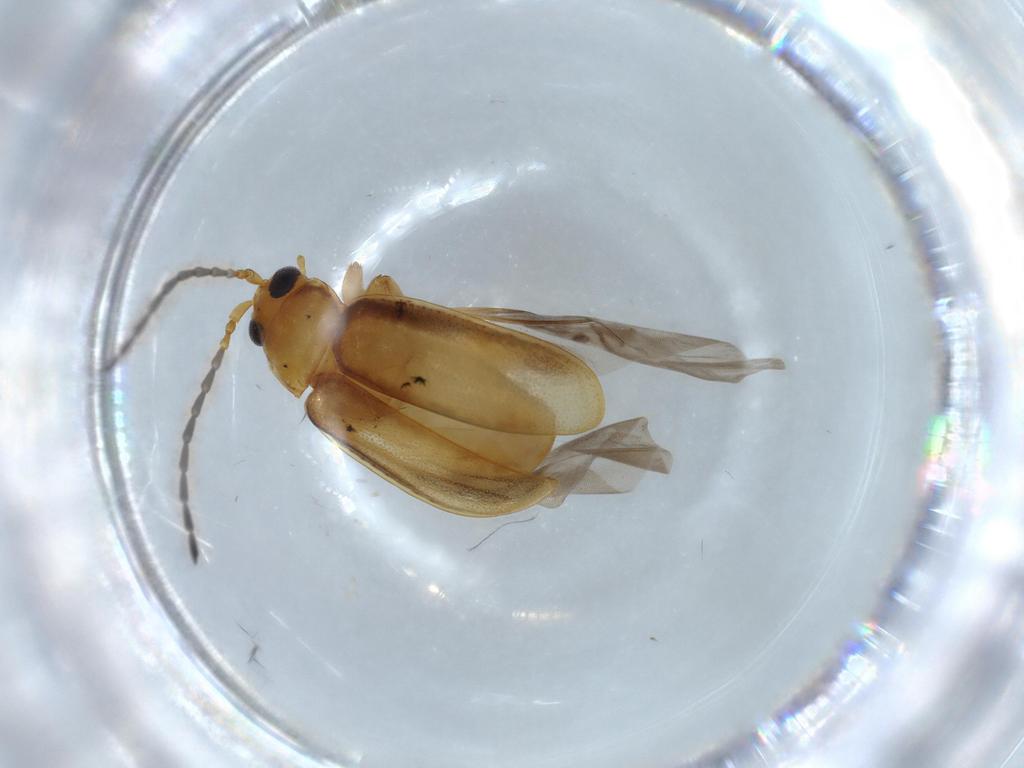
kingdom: Animalia
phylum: Arthropoda
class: Insecta
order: Coleoptera
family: Chrysomelidae
